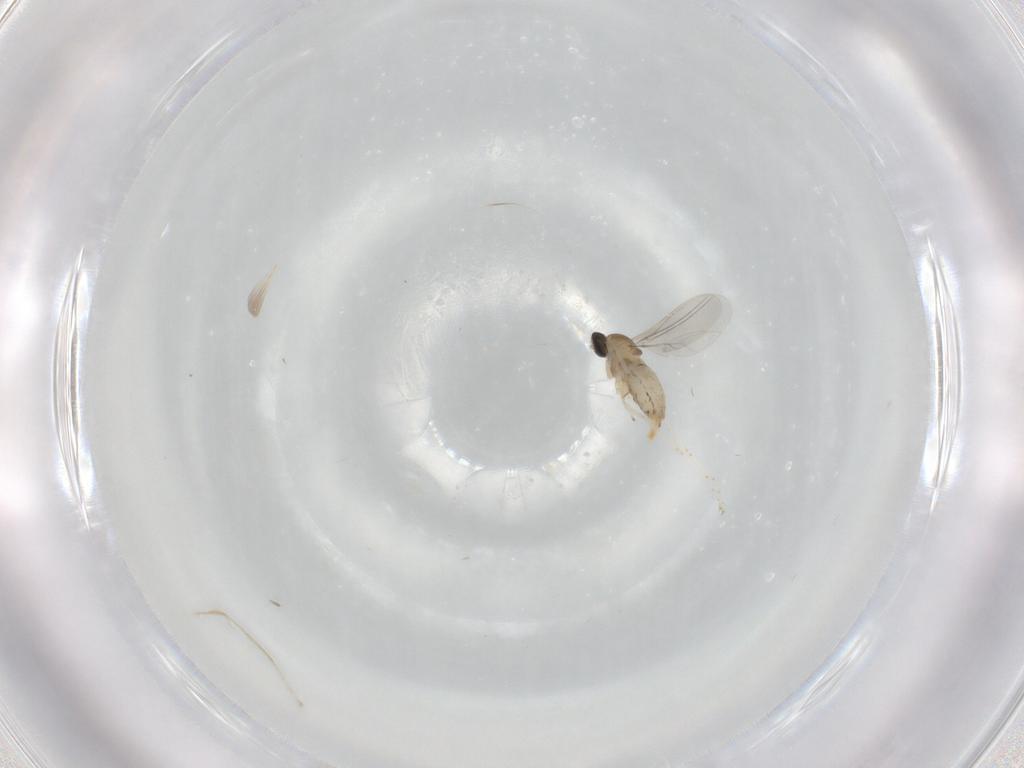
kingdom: Animalia
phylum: Arthropoda
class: Insecta
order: Diptera
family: Cecidomyiidae
